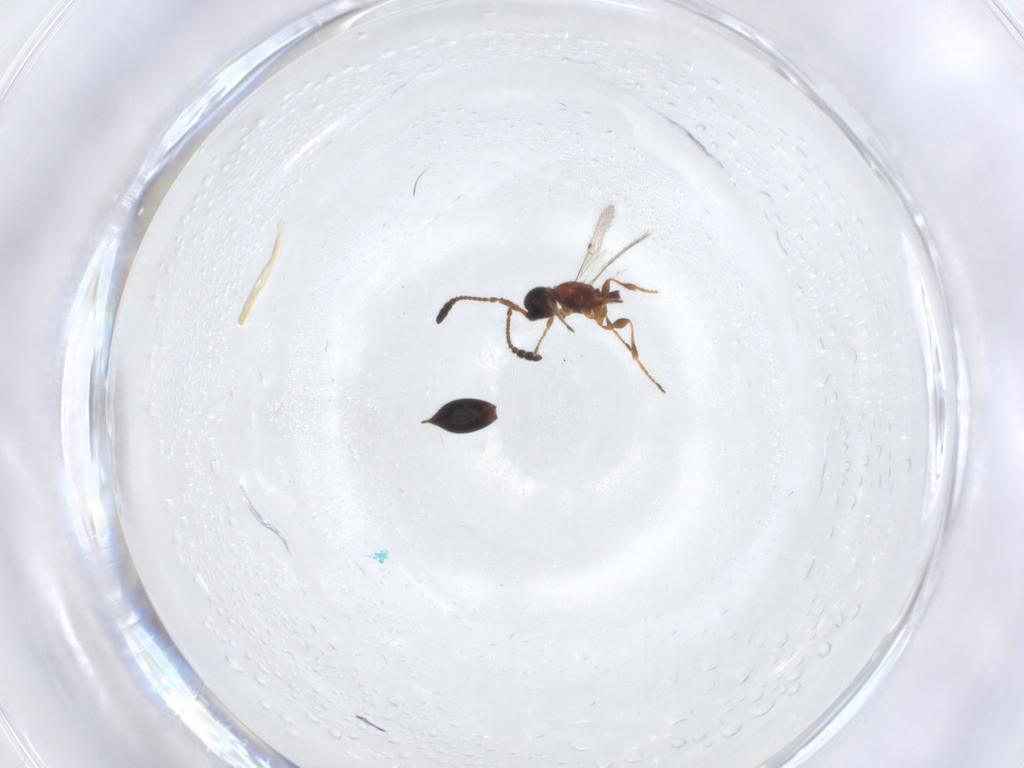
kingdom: Animalia
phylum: Arthropoda
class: Insecta
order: Hymenoptera
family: Diapriidae
